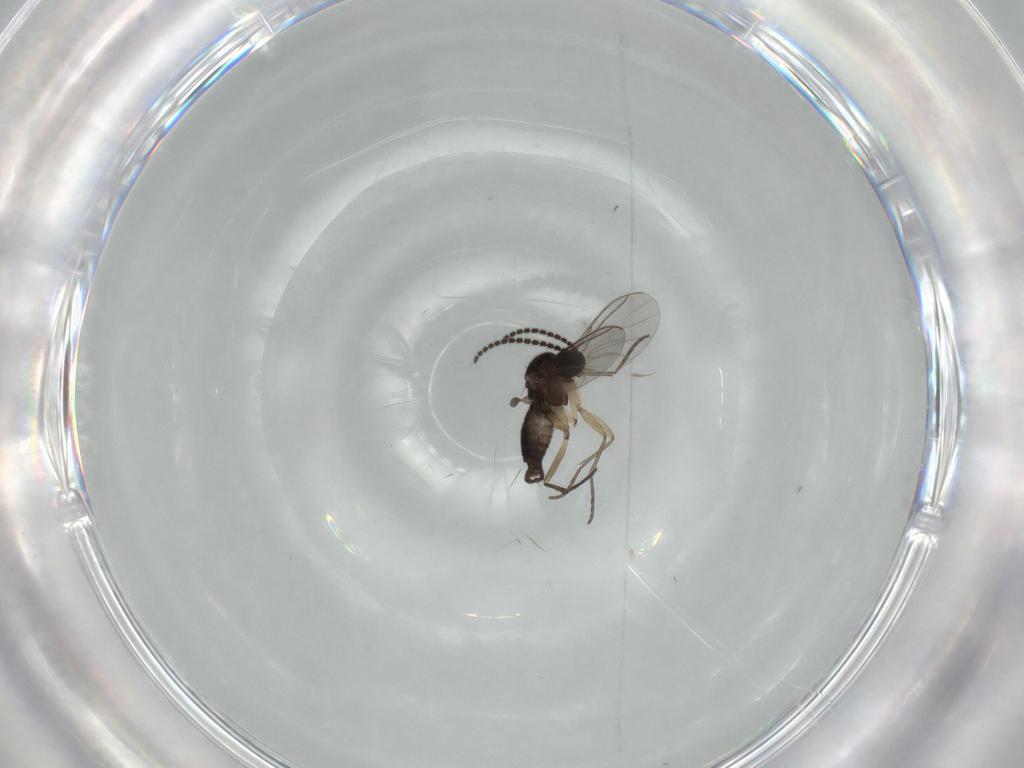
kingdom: Animalia
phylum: Arthropoda
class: Insecta
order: Diptera
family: Sciaridae
